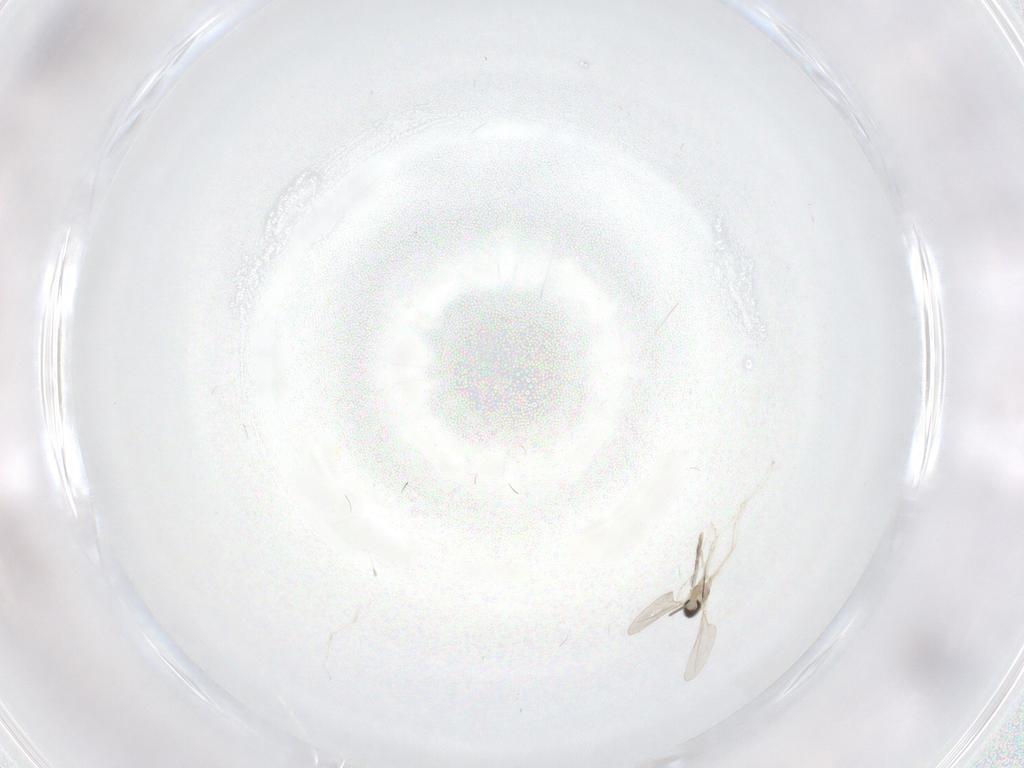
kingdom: Animalia
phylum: Arthropoda
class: Insecta
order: Diptera
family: Cecidomyiidae
